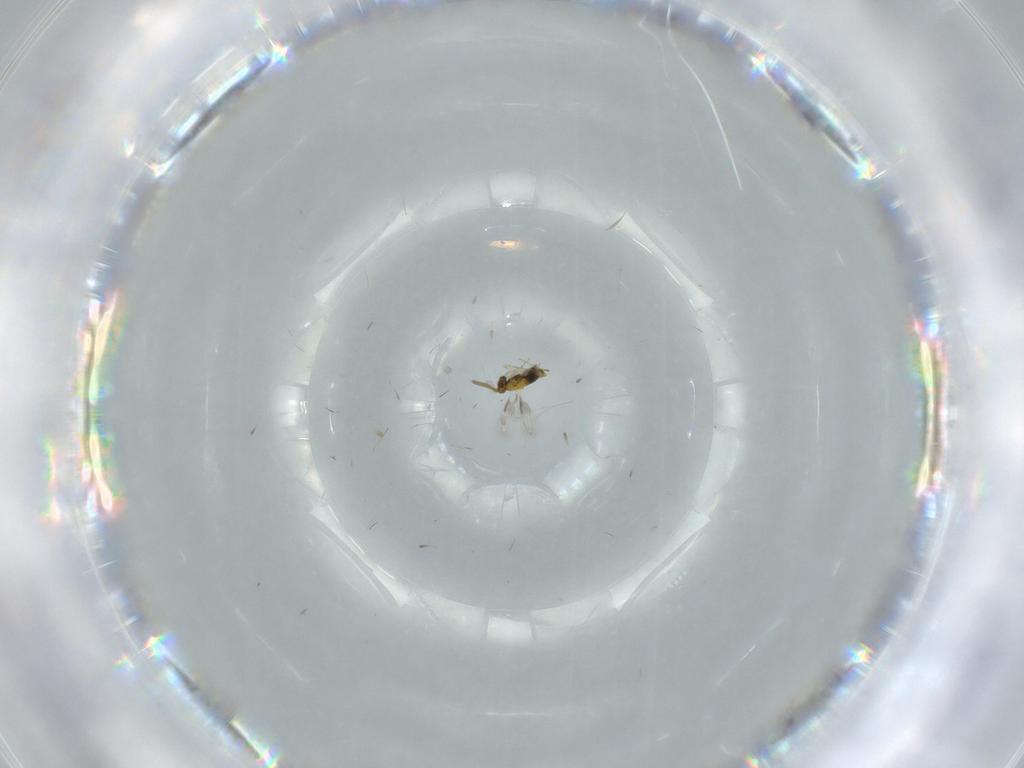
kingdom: Animalia
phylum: Arthropoda
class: Insecta
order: Hymenoptera
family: Aphelinidae
